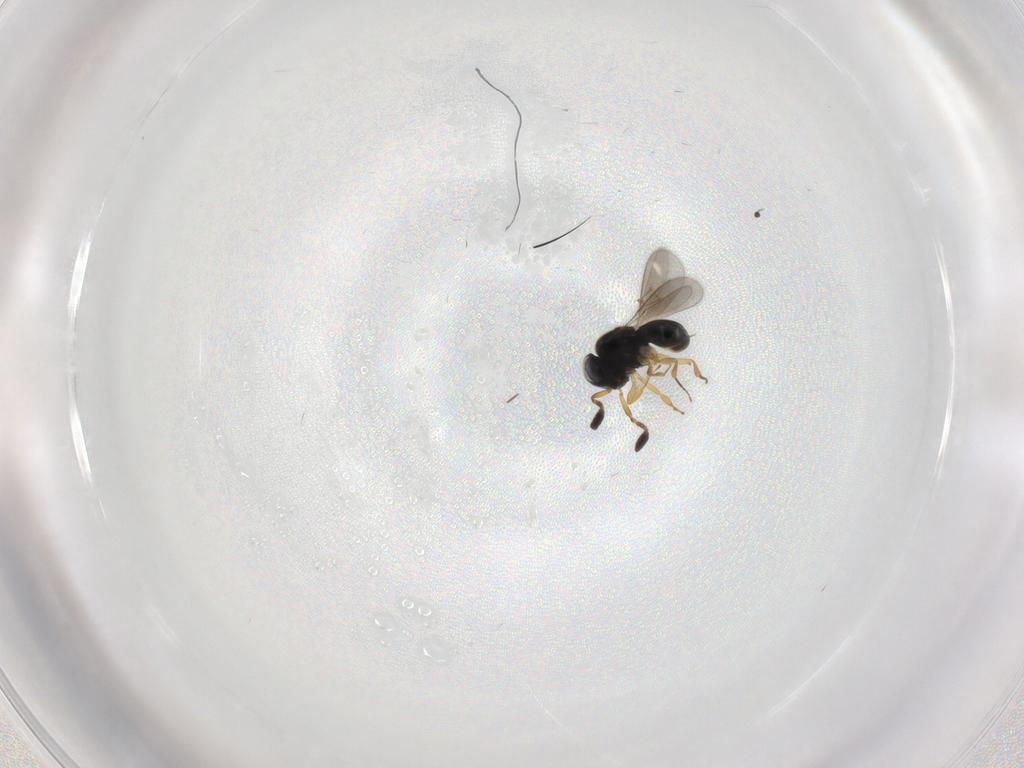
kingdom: Animalia
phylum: Arthropoda
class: Insecta
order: Hymenoptera
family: Scelionidae
